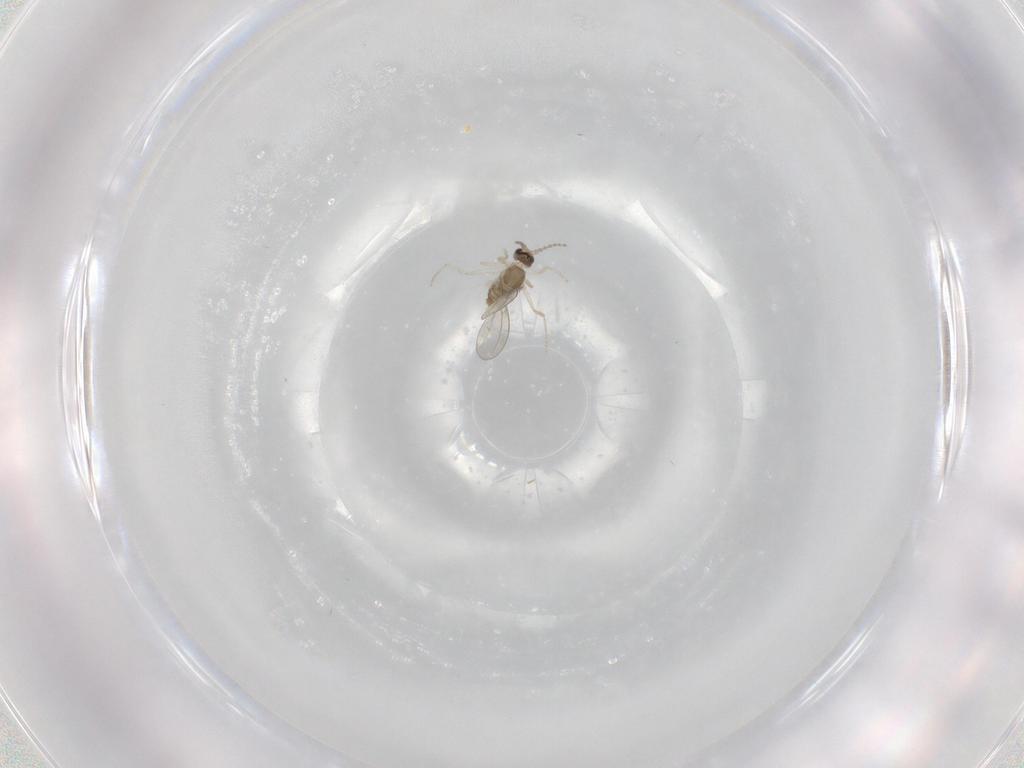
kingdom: Animalia
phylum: Arthropoda
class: Insecta
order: Diptera
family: Cecidomyiidae
